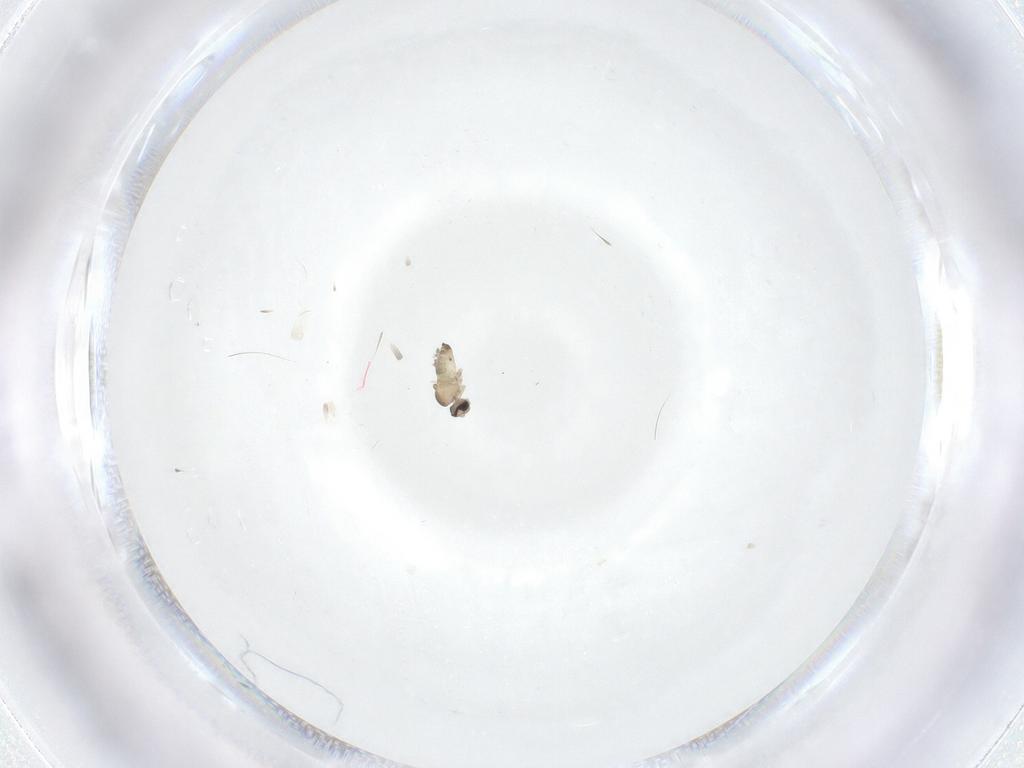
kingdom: Animalia
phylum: Arthropoda
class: Insecta
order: Diptera
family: Cecidomyiidae
